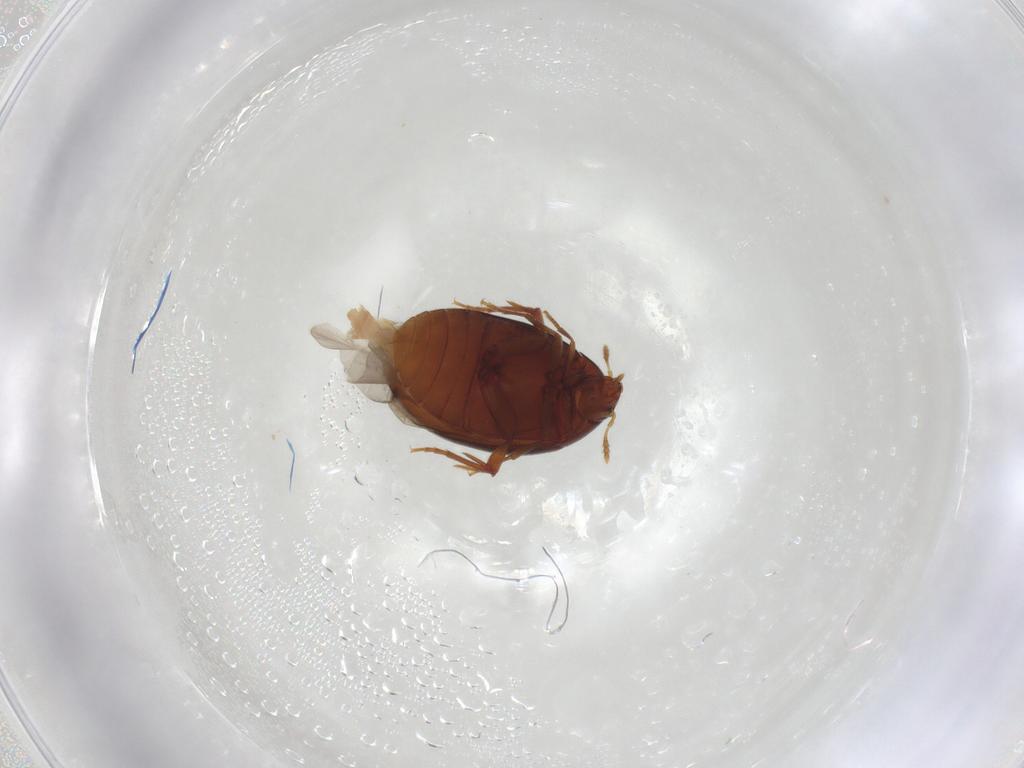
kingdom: Animalia
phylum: Arthropoda
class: Insecta
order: Coleoptera
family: Melandryidae
